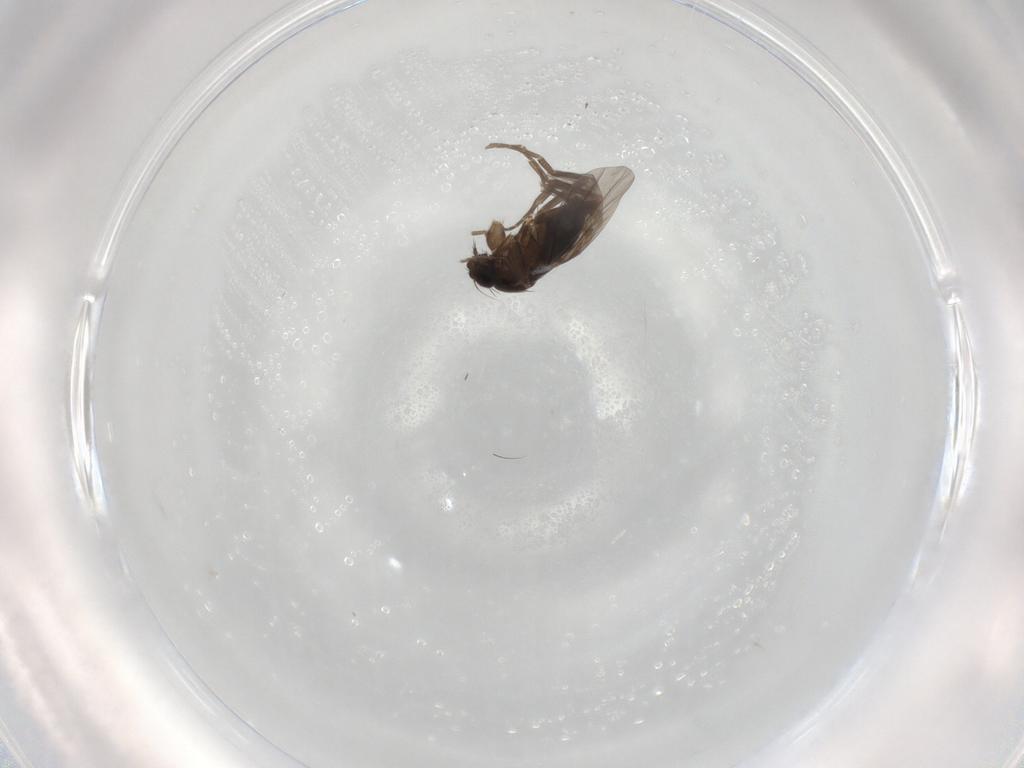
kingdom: Animalia
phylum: Arthropoda
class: Insecta
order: Diptera
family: Phoridae
